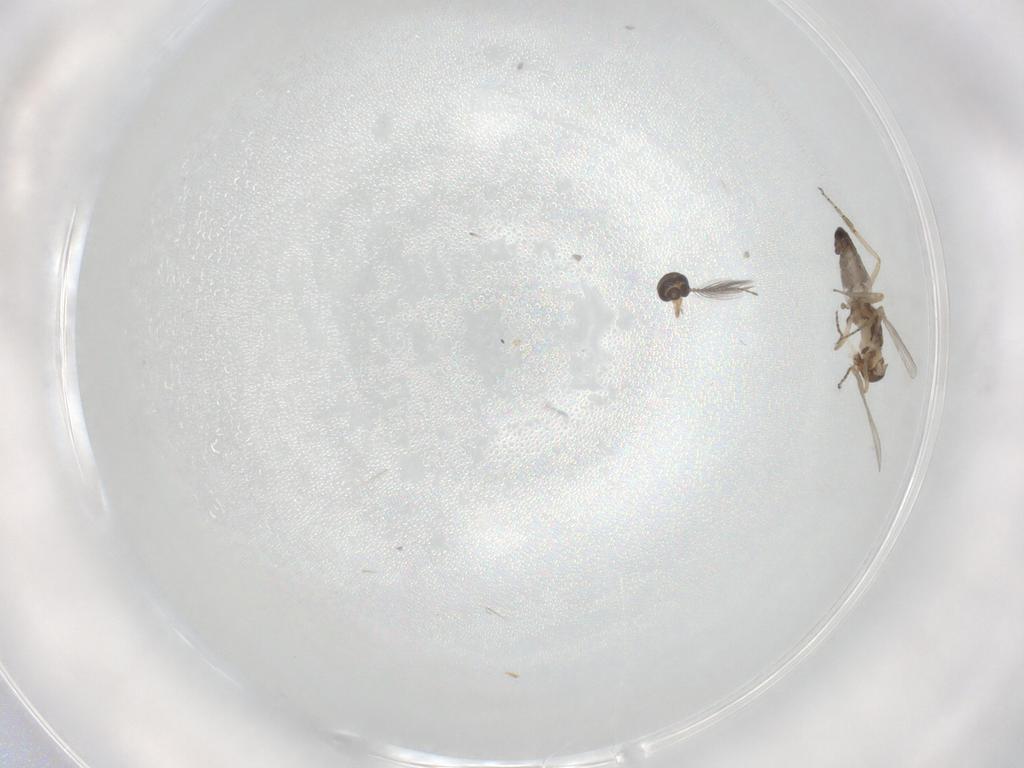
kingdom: Animalia
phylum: Arthropoda
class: Insecta
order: Diptera
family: Ceratopogonidae
